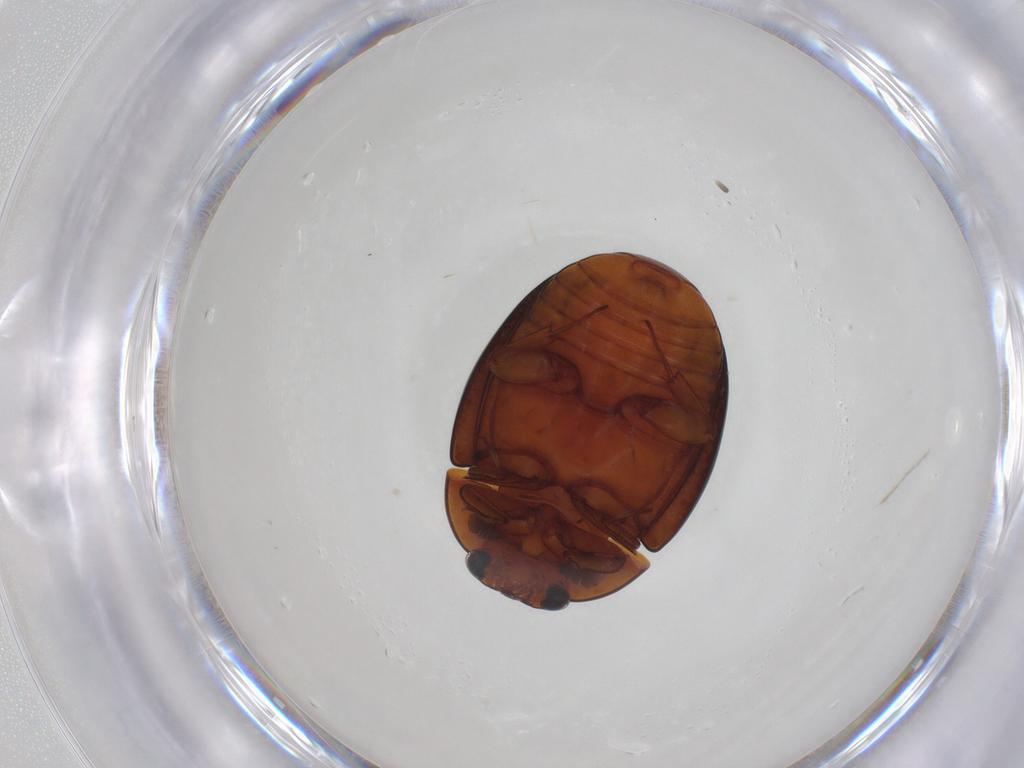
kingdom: Animalia
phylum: Arthropoda
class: Insecta
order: Coleoptera
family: Chrysomelidae
